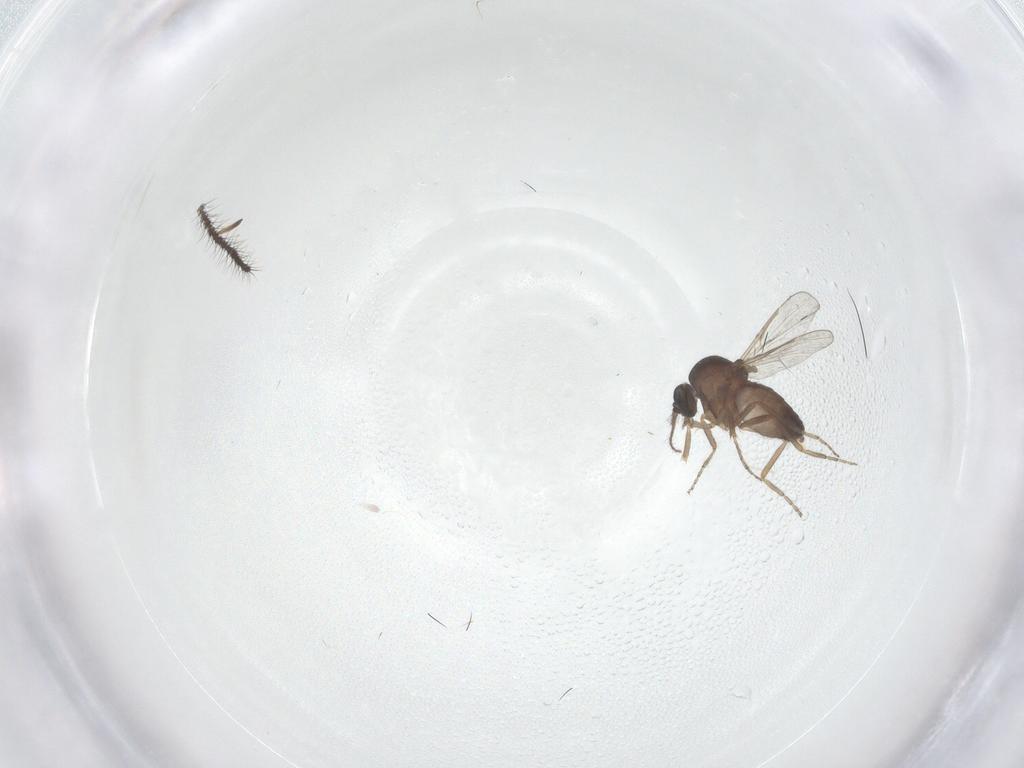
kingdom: Animalia
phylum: Arthropoda
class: Insecta
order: Diptera
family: Ceratopogonidae
